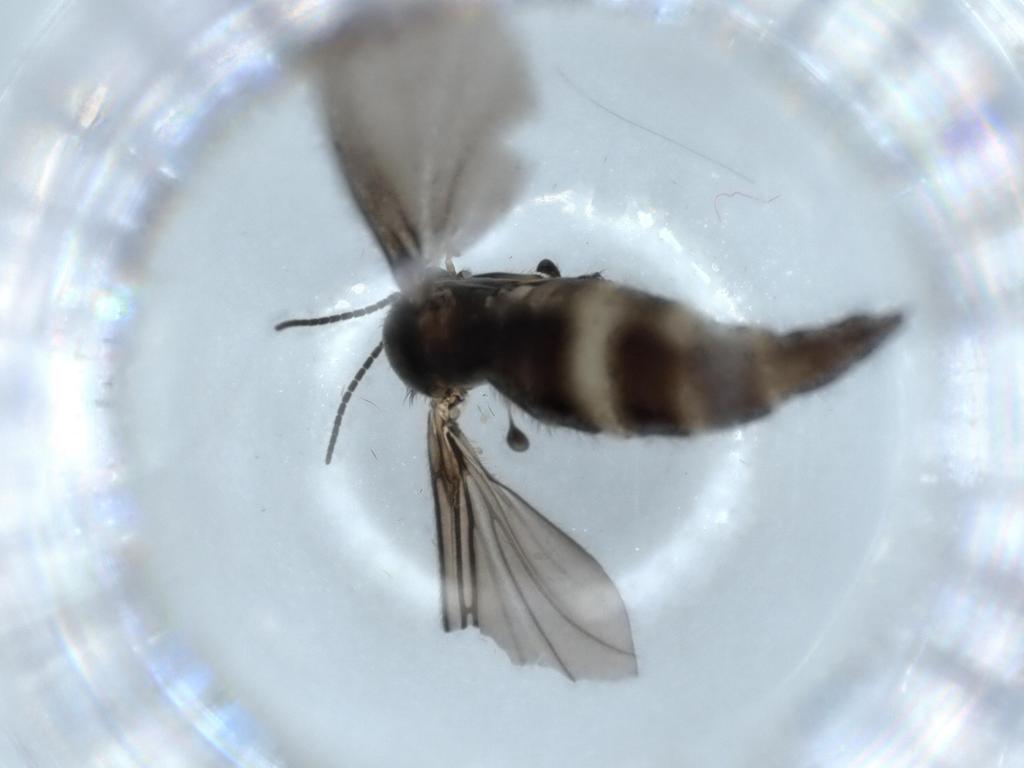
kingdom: Animalia
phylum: Arthropoda
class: Insecta
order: Diptera
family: Sciaridae
